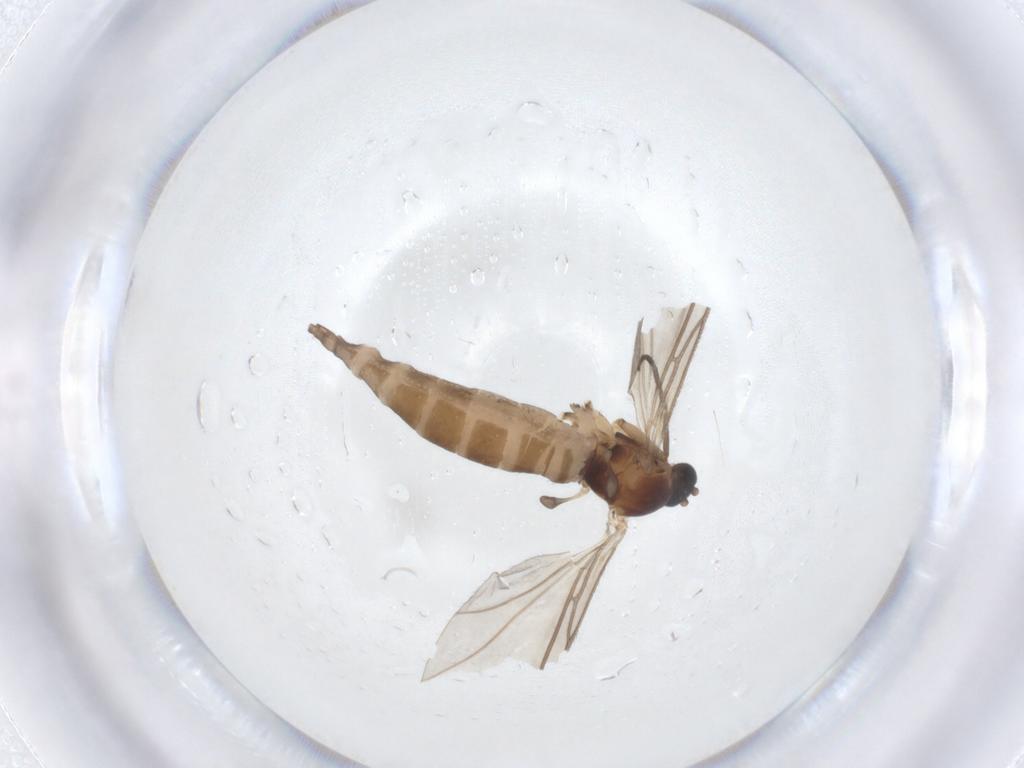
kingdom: Animalia
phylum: Arthropoda
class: Insecta
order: Diptera
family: Sciaridae
